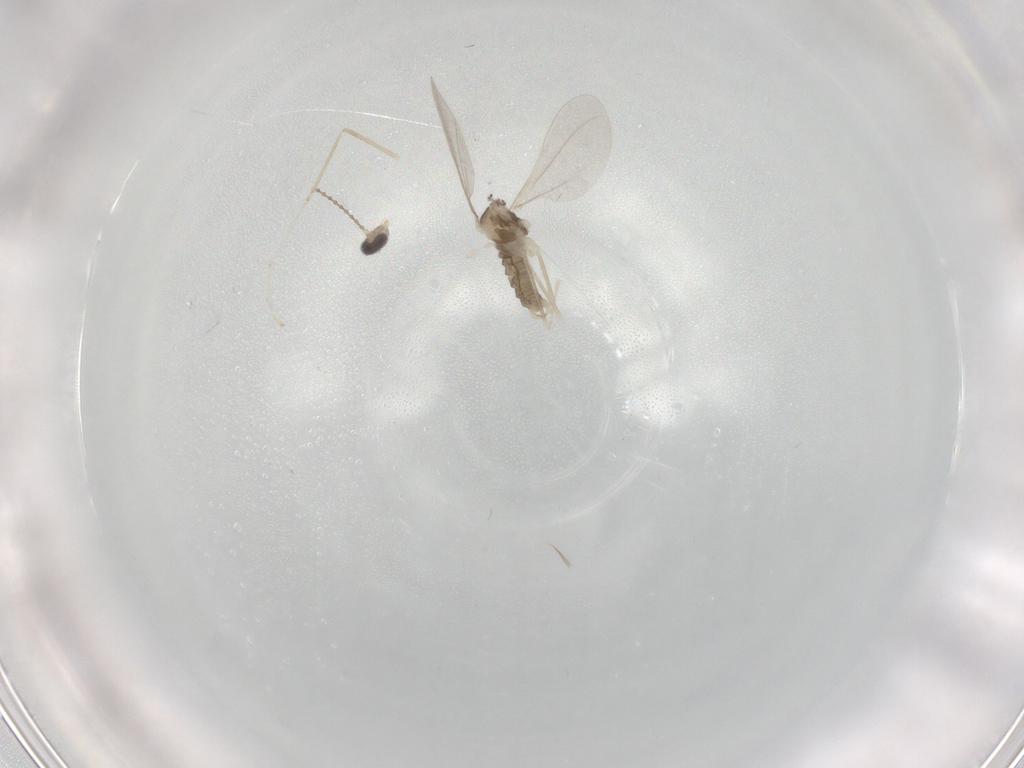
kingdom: Animalia
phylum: Arthropoda
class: Insecta
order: Diptera
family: Cecidomyiidae
